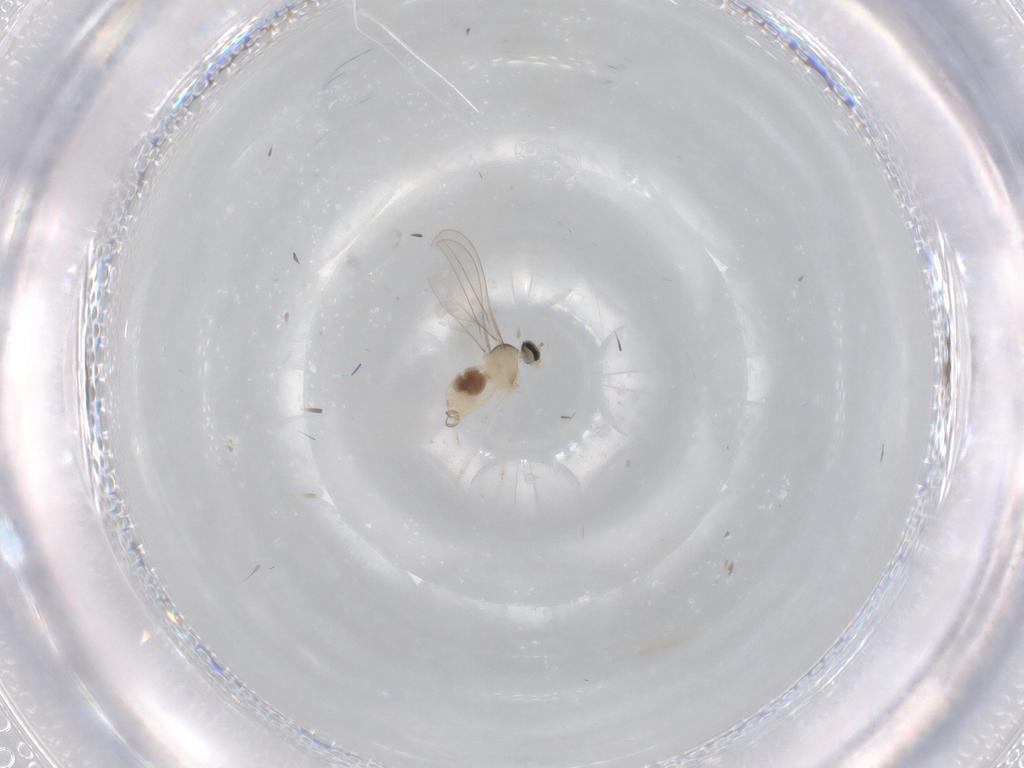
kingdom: Animalia
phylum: Arthropoda
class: Insecta
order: Diptera
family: Cecidomyiidae
